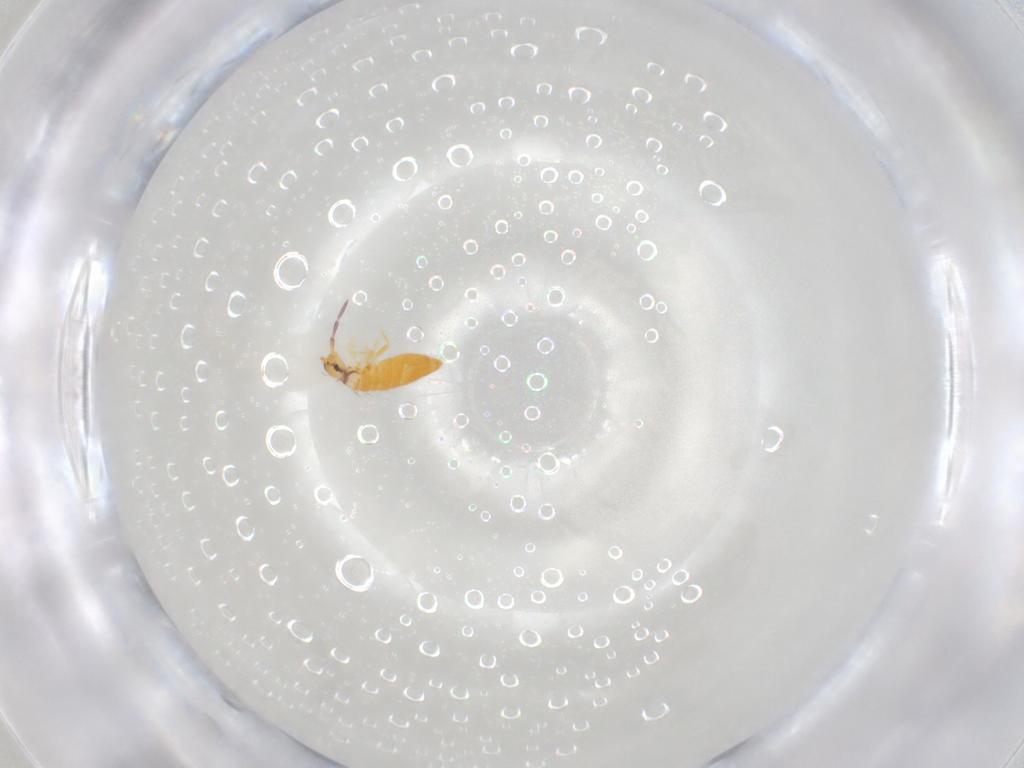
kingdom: Animalia
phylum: Arthropoda
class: Collembola
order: Entomobryomorpha
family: Entomobryidae
